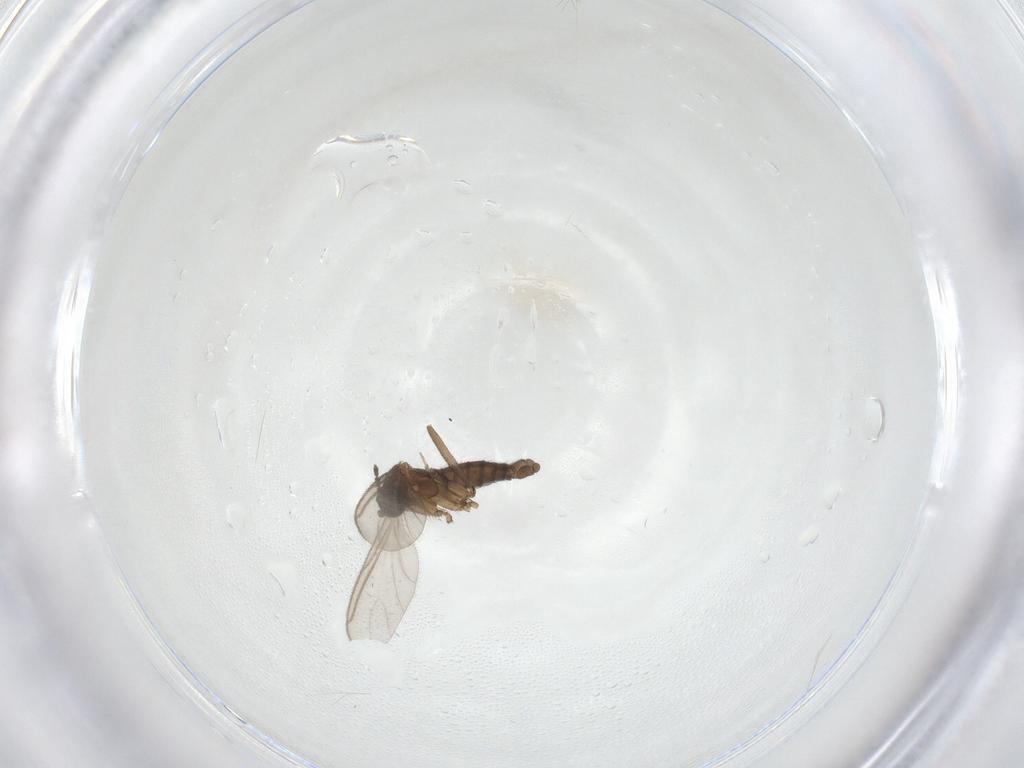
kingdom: Animalia
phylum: Arthropoda
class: Insecta
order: Diptera
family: Sciaridae
